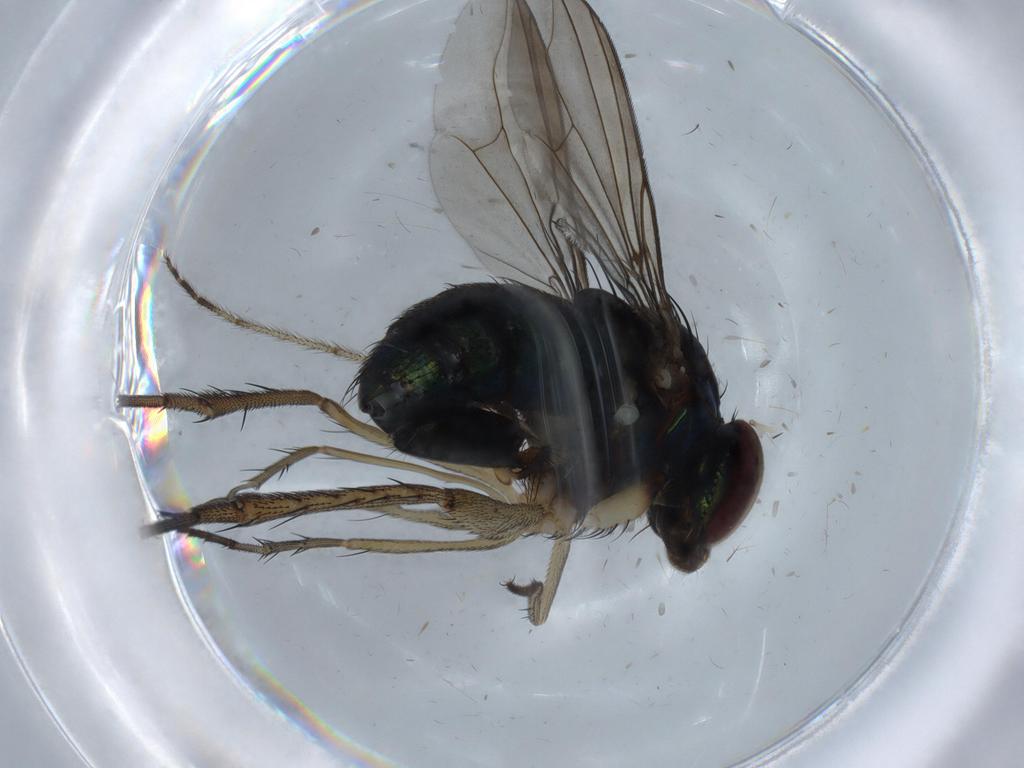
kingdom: Animalia
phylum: Arthropoda
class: Insecta
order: Diptera
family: Dolichopodidae
